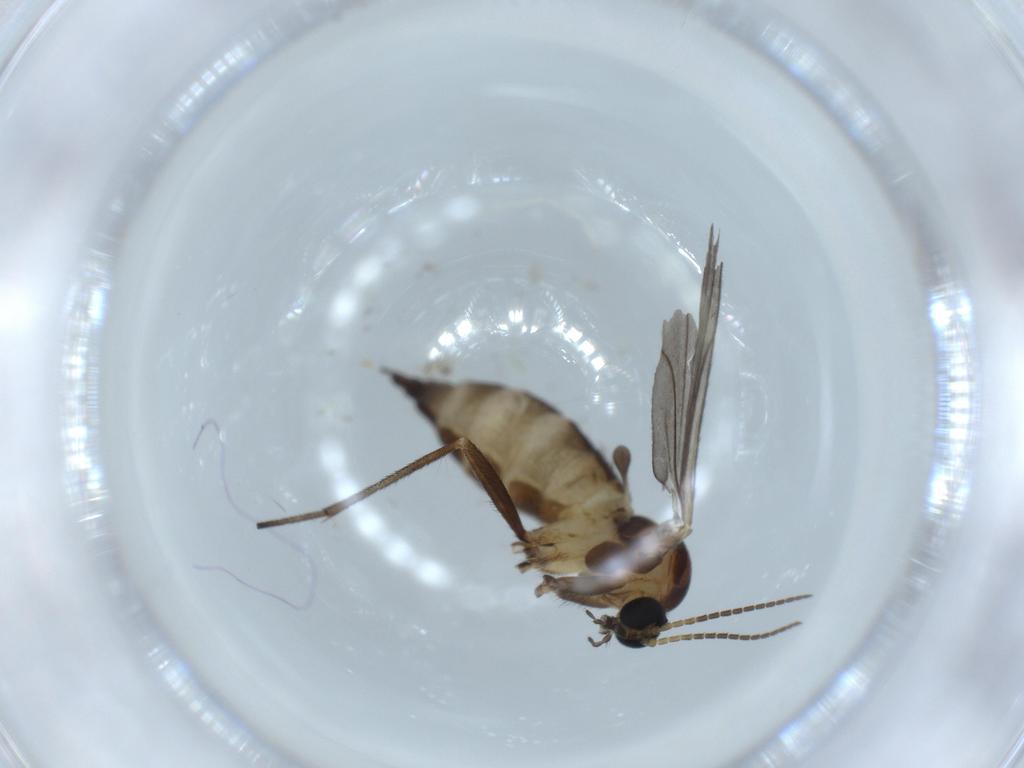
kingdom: Animalia
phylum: Arthropoda
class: Insecta
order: Diptera
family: Sciaridae
